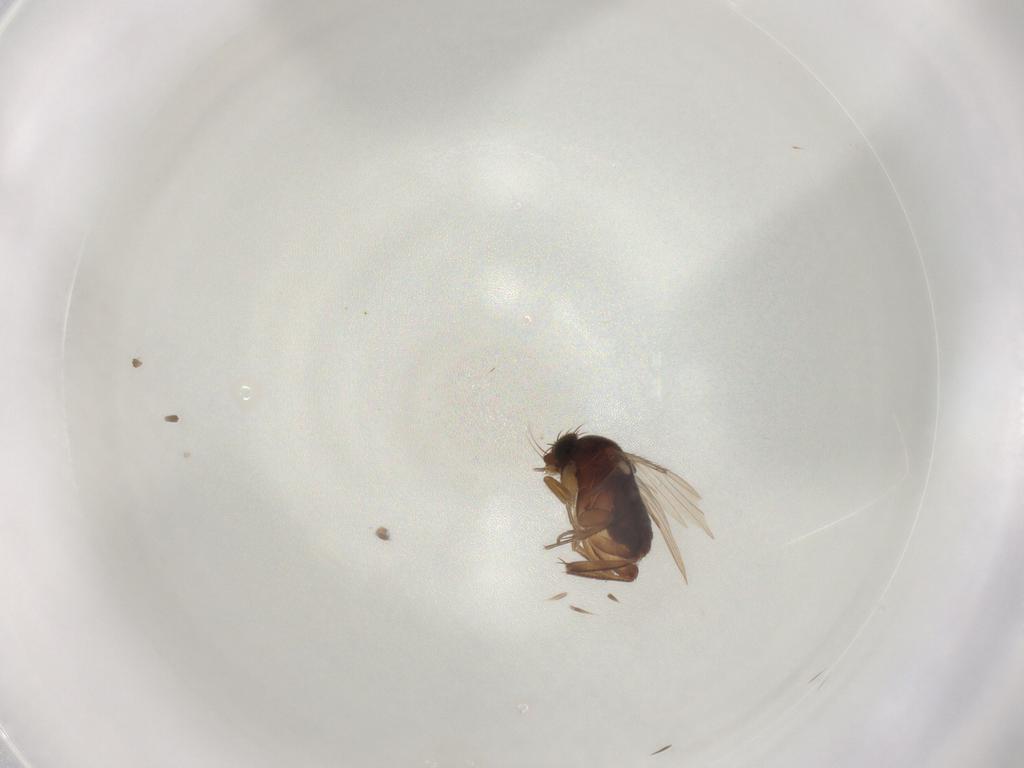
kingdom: Animalia
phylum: Arthropoda
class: Insecta
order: Diptera
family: Phoridae
